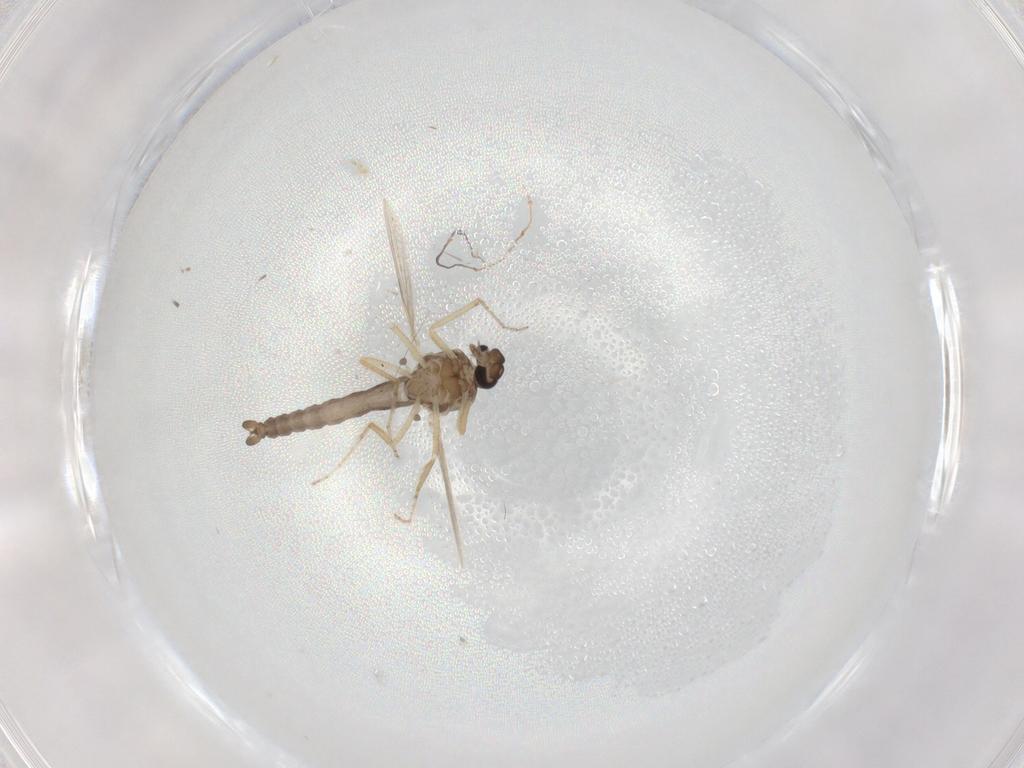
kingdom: Animalia
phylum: Arthropoda
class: Insecta
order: Diptera
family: Ceratopogonidae
